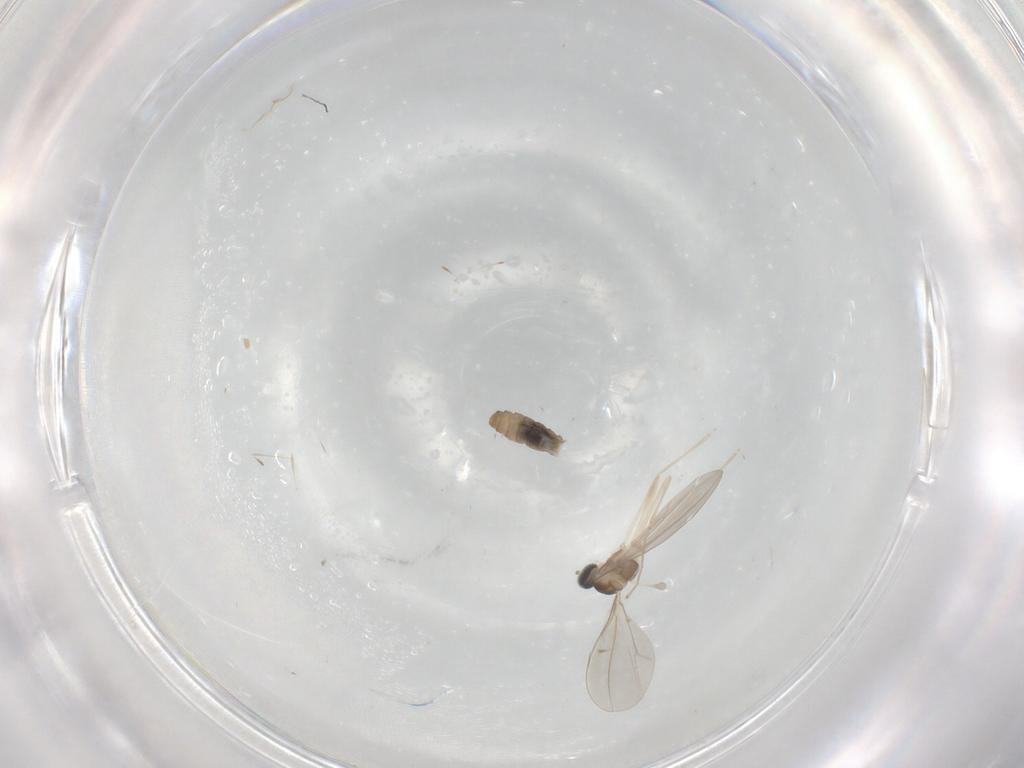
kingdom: Animalia
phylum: Arthropoda
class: Insecta
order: Diptera
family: Cecidomyiidae
